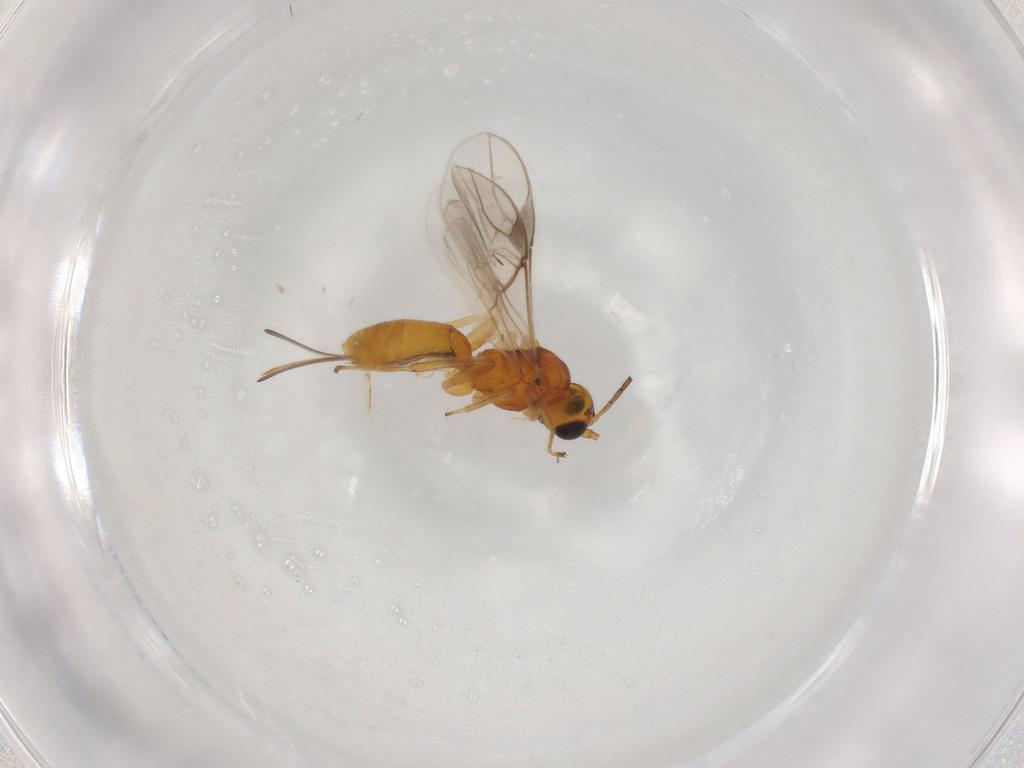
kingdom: Animalia
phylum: Arthropoda
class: Insecta
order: Hymenoptera
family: Braconidae
